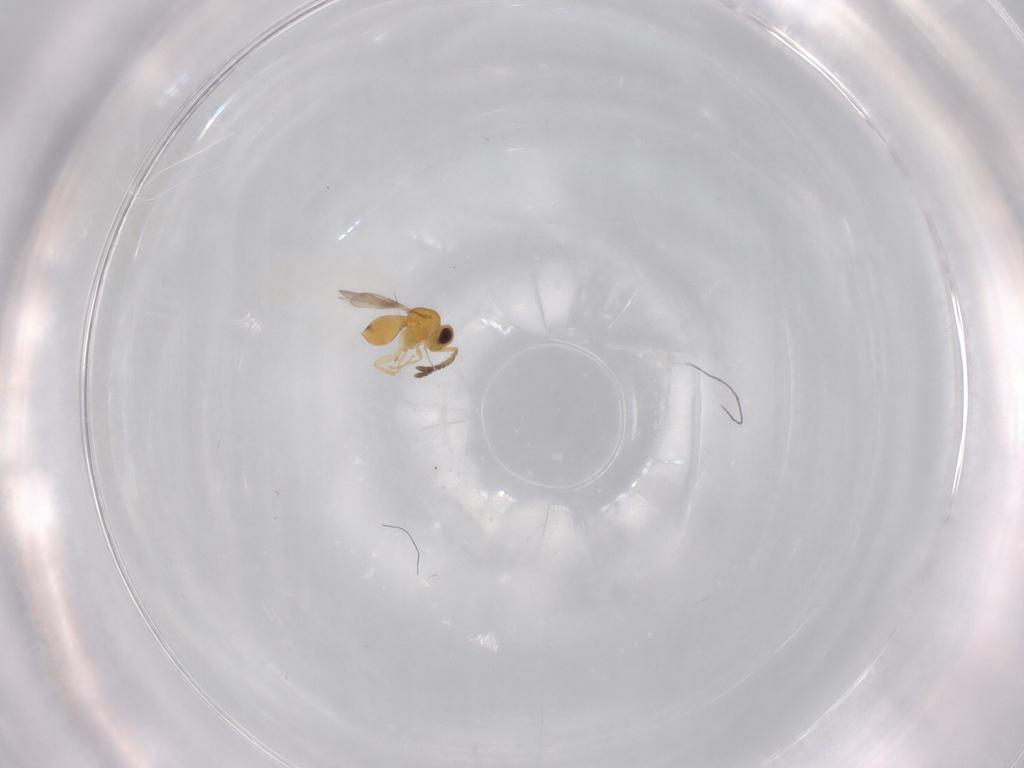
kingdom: Animalia
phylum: Arthropoda
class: Insecta
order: Hymenoptera
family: Ceraphronidae
